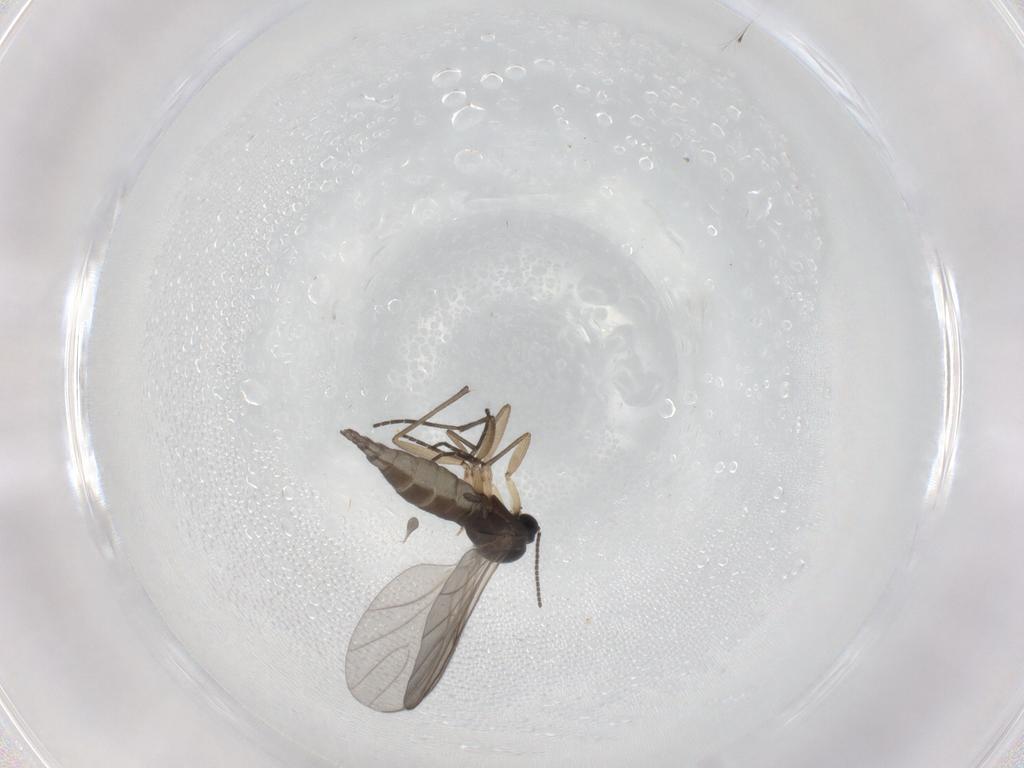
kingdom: Animalia
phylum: Arthropoda
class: Insecta
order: Diptera
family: Sciaridae
